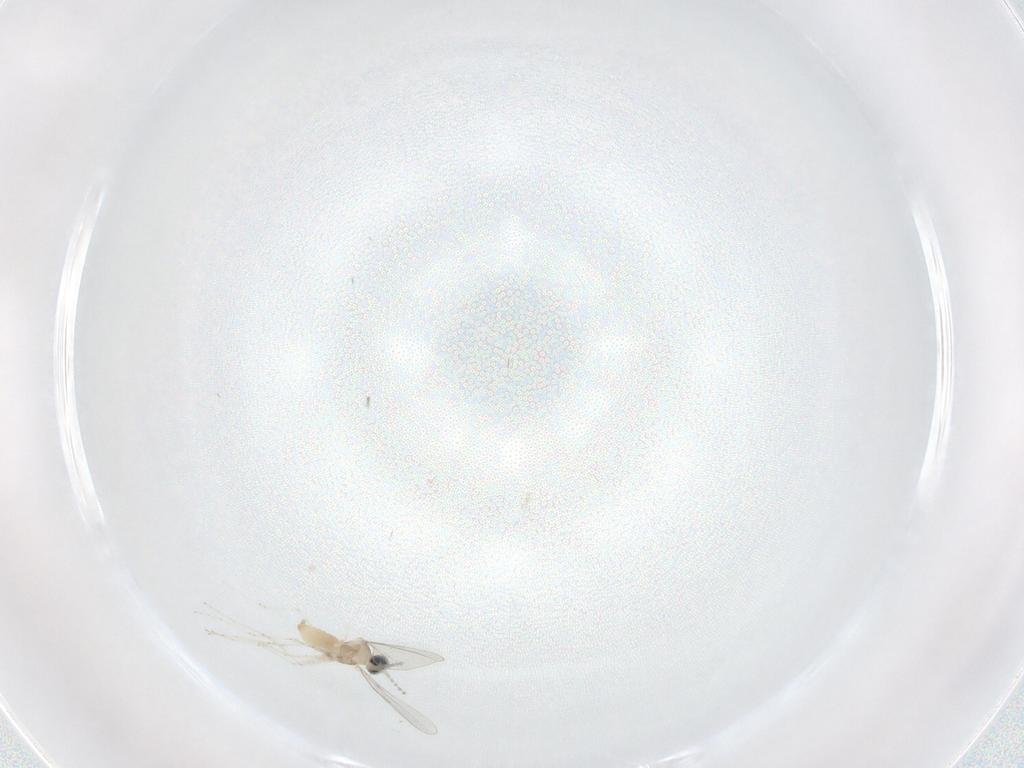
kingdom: Animalia
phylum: Arthropoda
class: Insecta
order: Diptera
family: Cecidomyiidae
